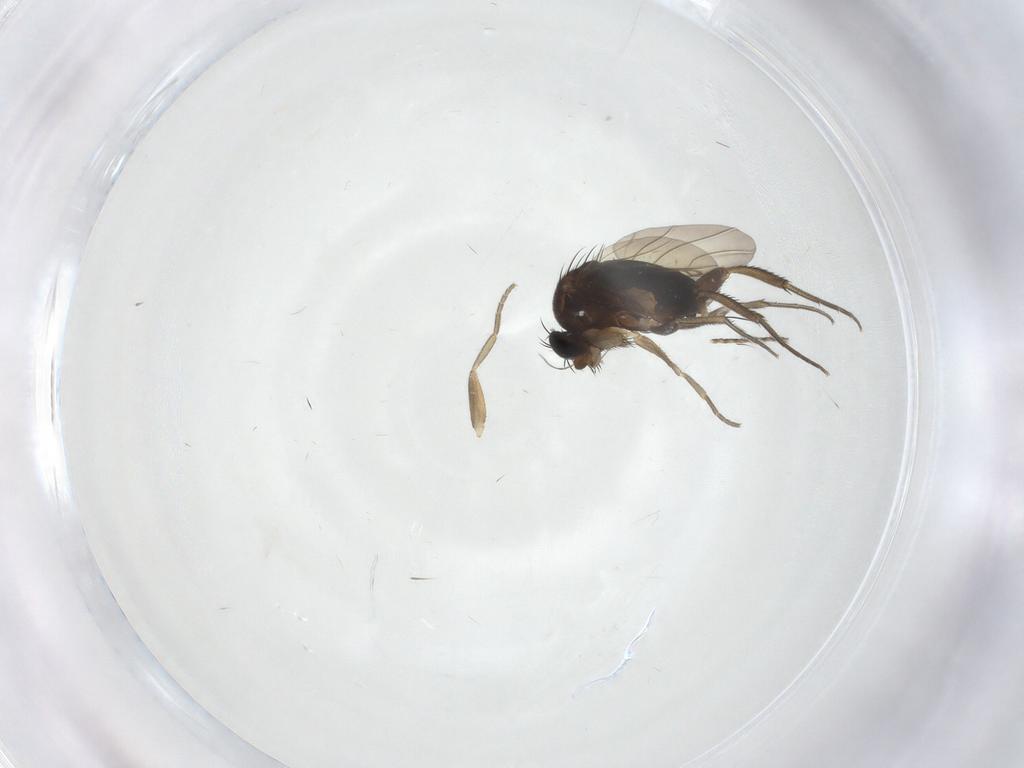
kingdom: Animalia
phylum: Arthropoda
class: Insecta
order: Diptera
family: Phoridae
